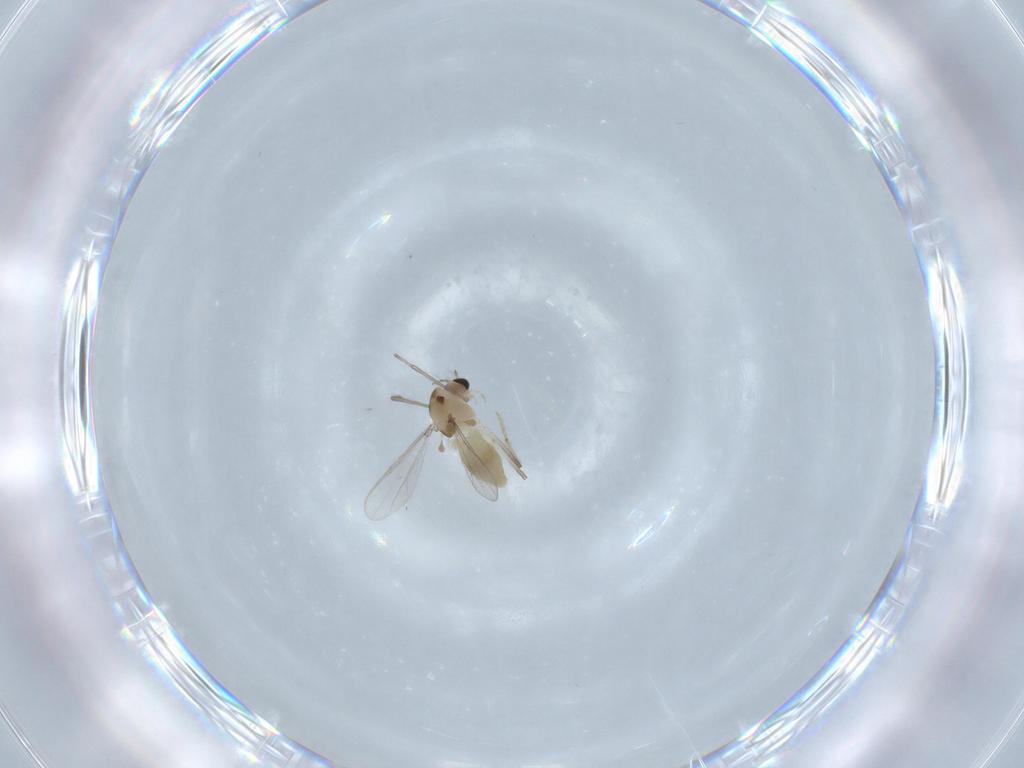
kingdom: Animalia
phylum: Arthropoda
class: Insecta
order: Diptera
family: Chironomidae
